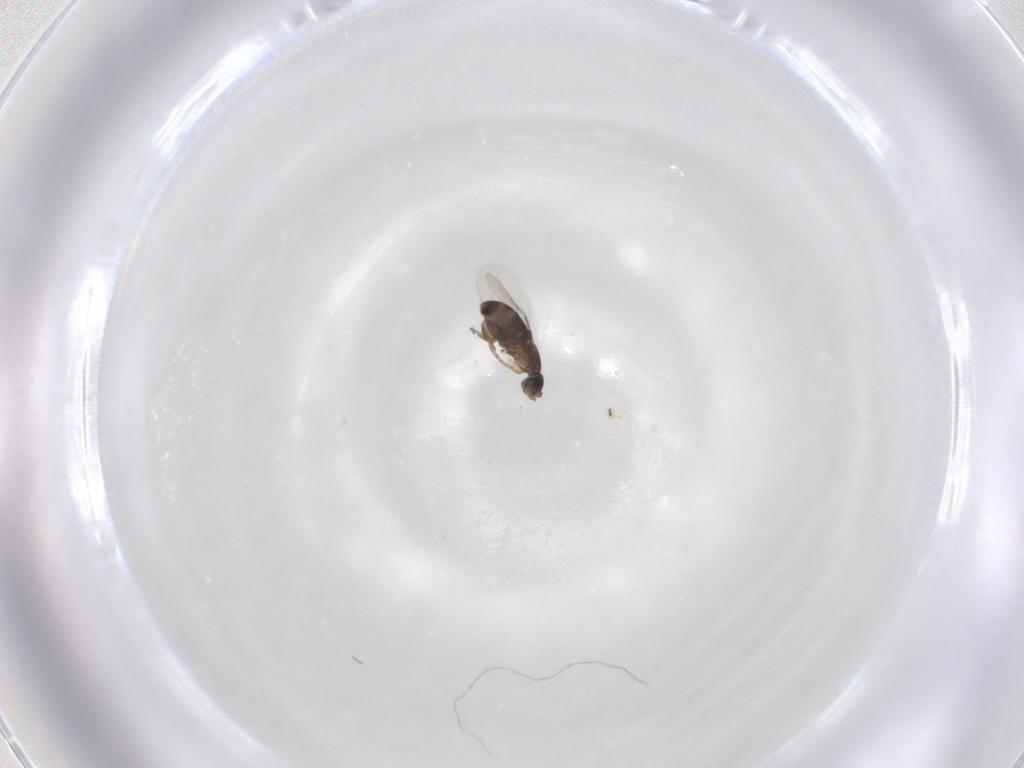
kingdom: Animalia
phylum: Arthropoda
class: Insecta
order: Diptera
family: Phoridae
